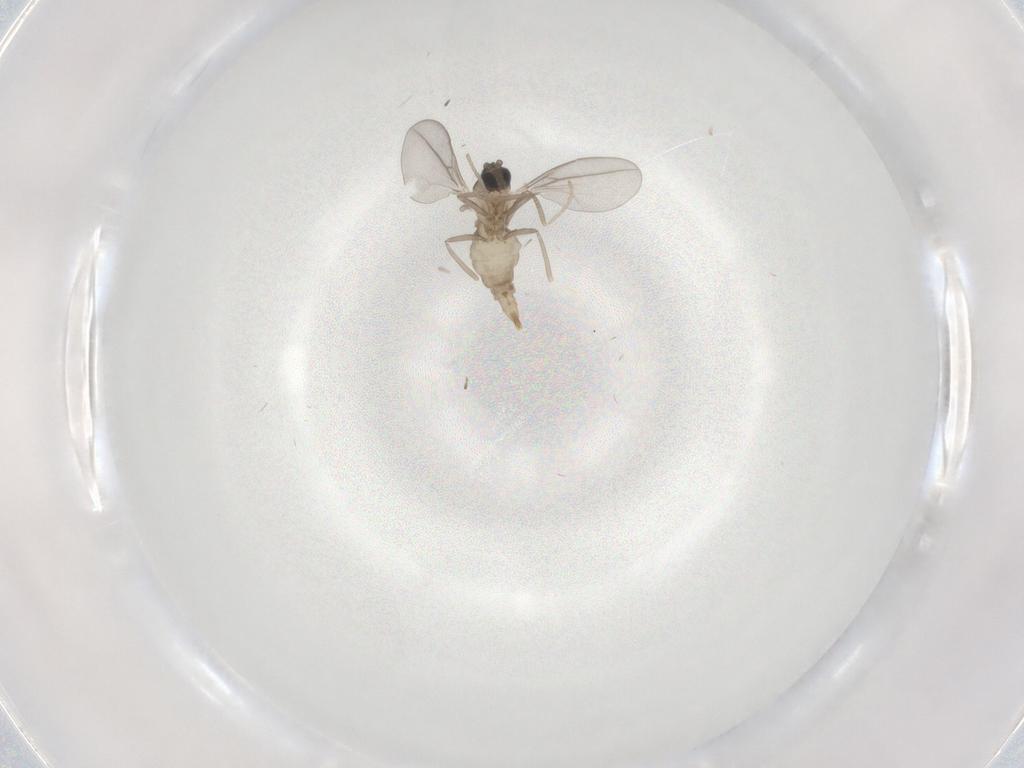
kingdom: Animalia
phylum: Arthropoda
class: Insecta
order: Diptera
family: Cecidomyiidae
